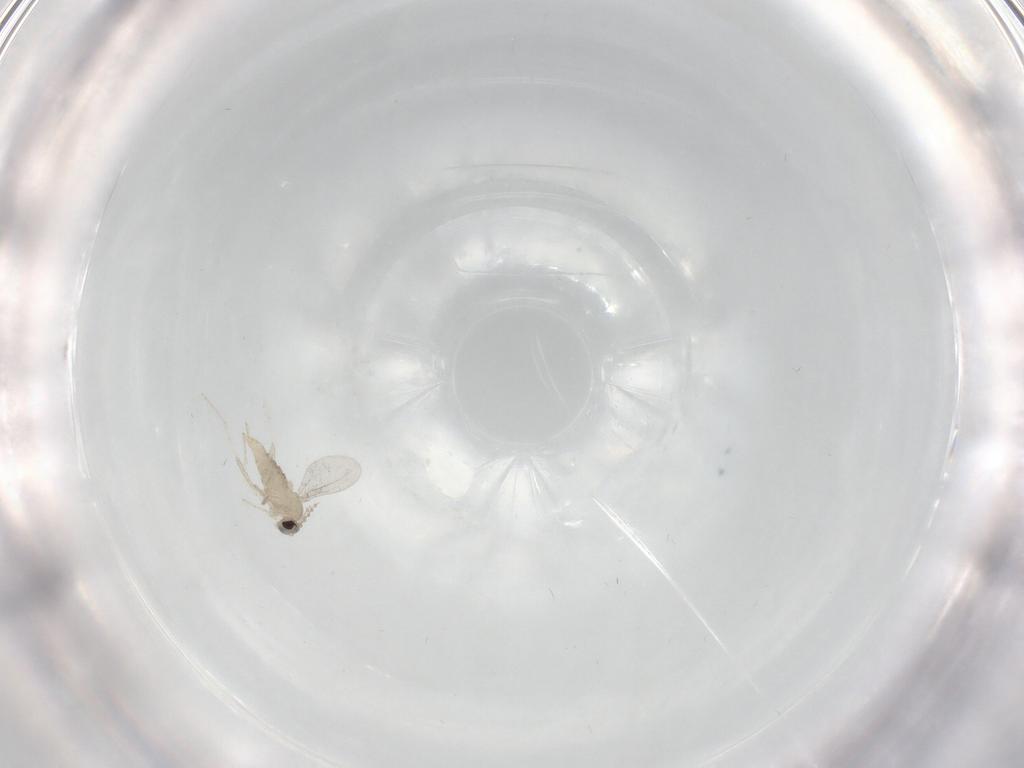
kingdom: Animalia
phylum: Arthropoda
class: Insecta
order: Diptera
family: Cecidomyiidae
